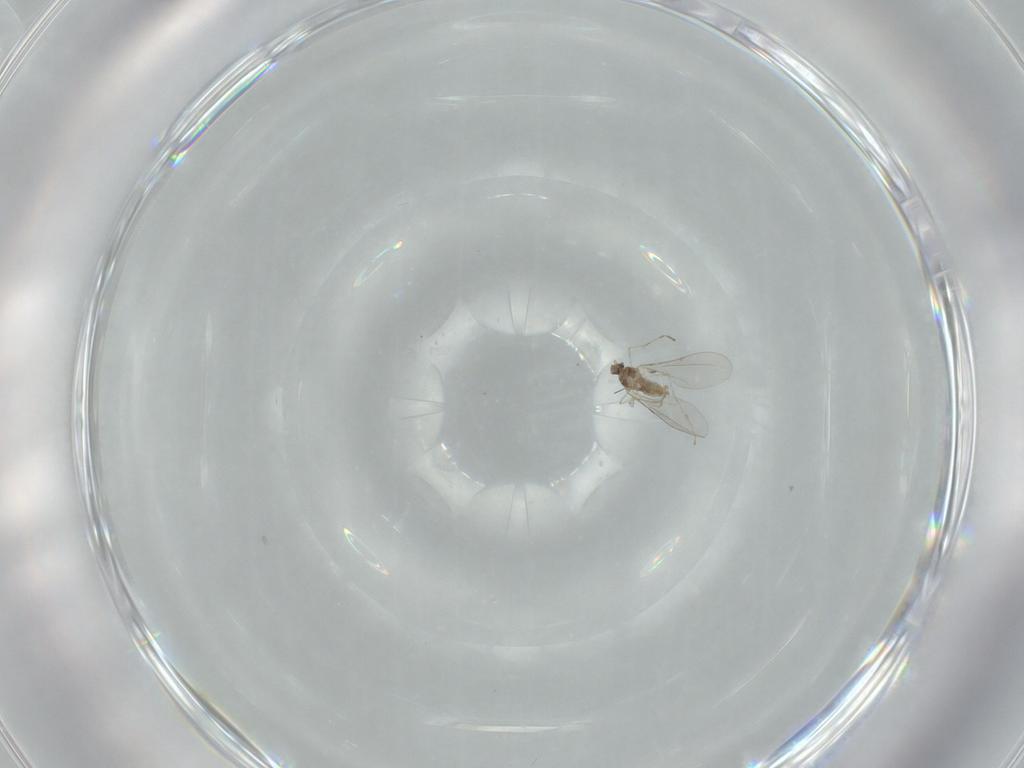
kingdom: Animalia
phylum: Arthropoda
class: Insecta
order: Diptera
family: Cecidomyiidae
